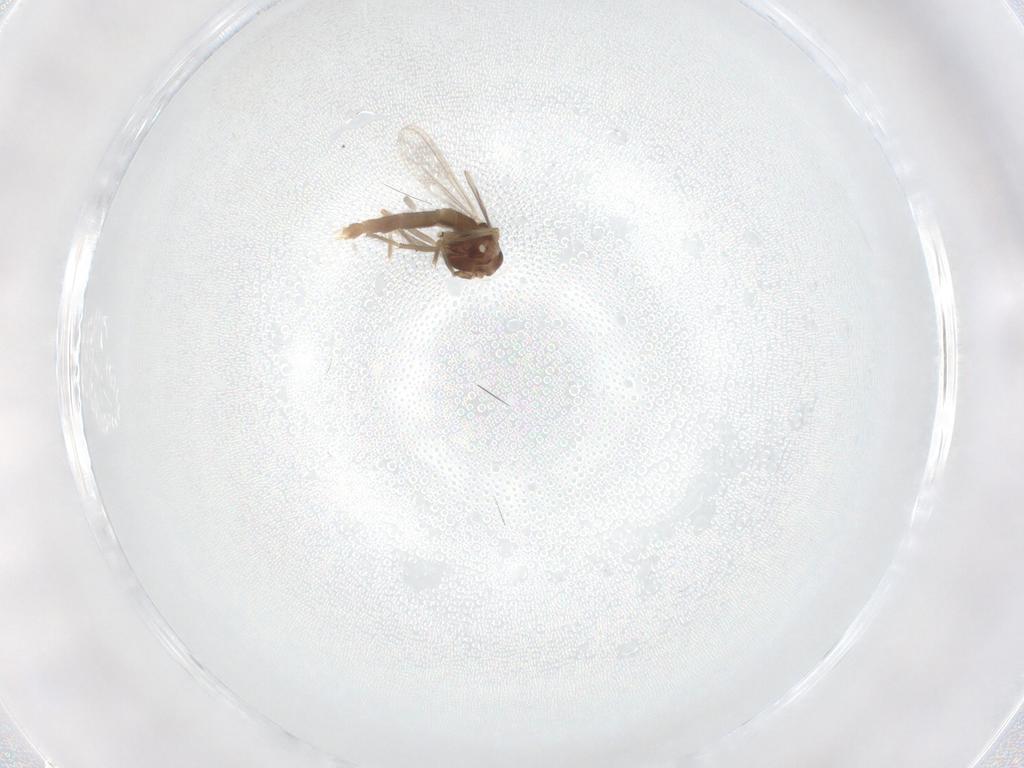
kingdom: Animalia
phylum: Arthropoda
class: Insecta
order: Diptera
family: Chironomidae
